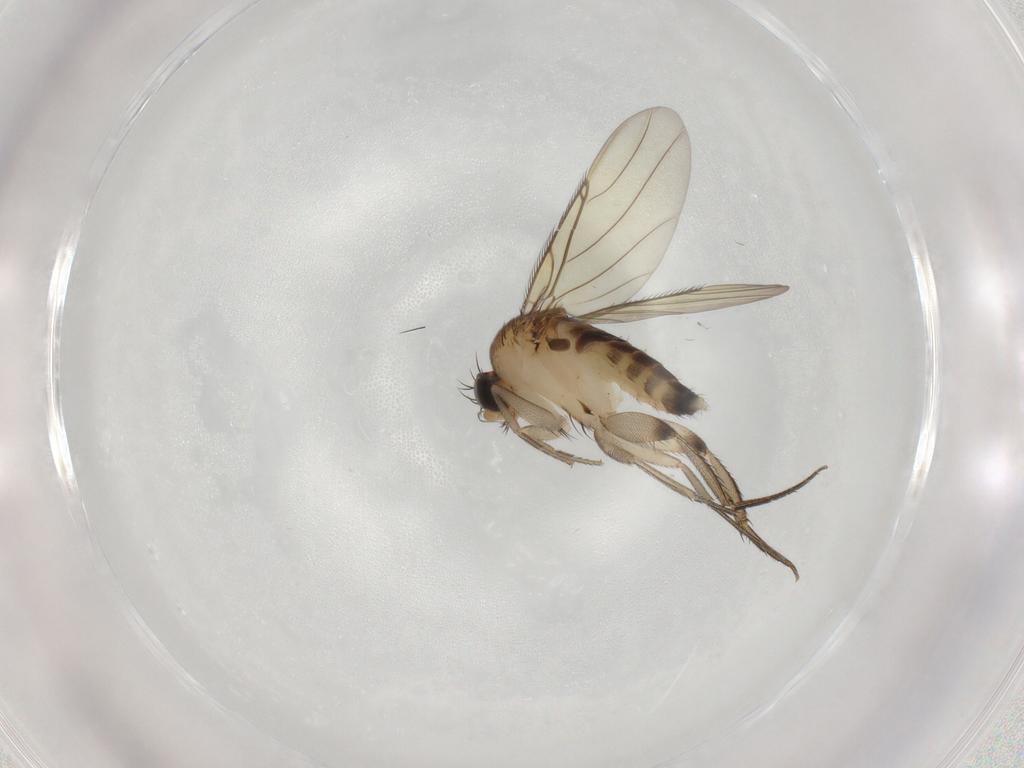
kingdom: Animalia
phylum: Arthropoda
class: Insecta
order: Diptera
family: Phoridae
